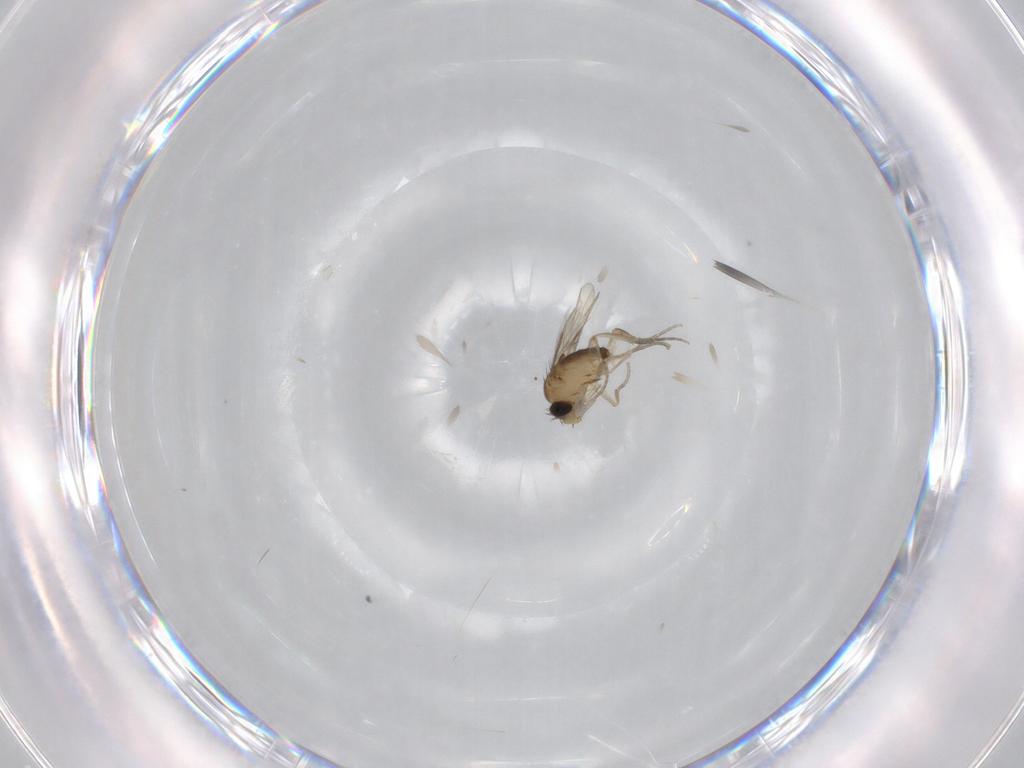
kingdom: Animalia
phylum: Arthropoda
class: Insecta
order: Diptera
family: Phoridae
